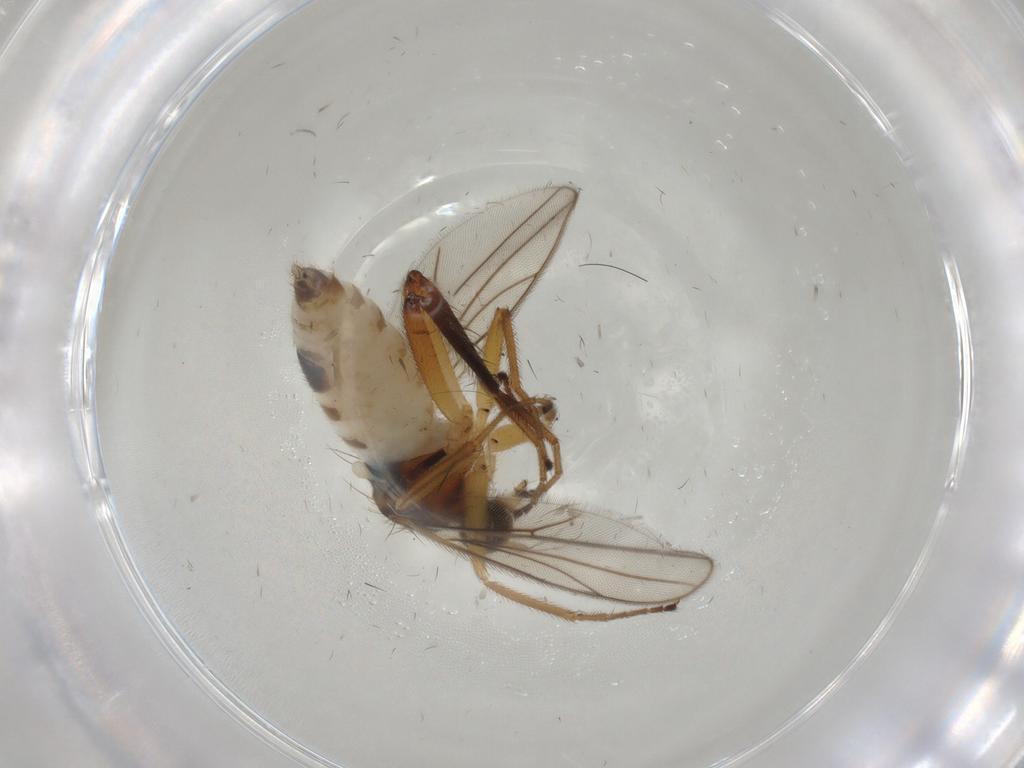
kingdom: Animalia
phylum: Arthropoda
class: Insecta
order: Diptera
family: Hybotidae
